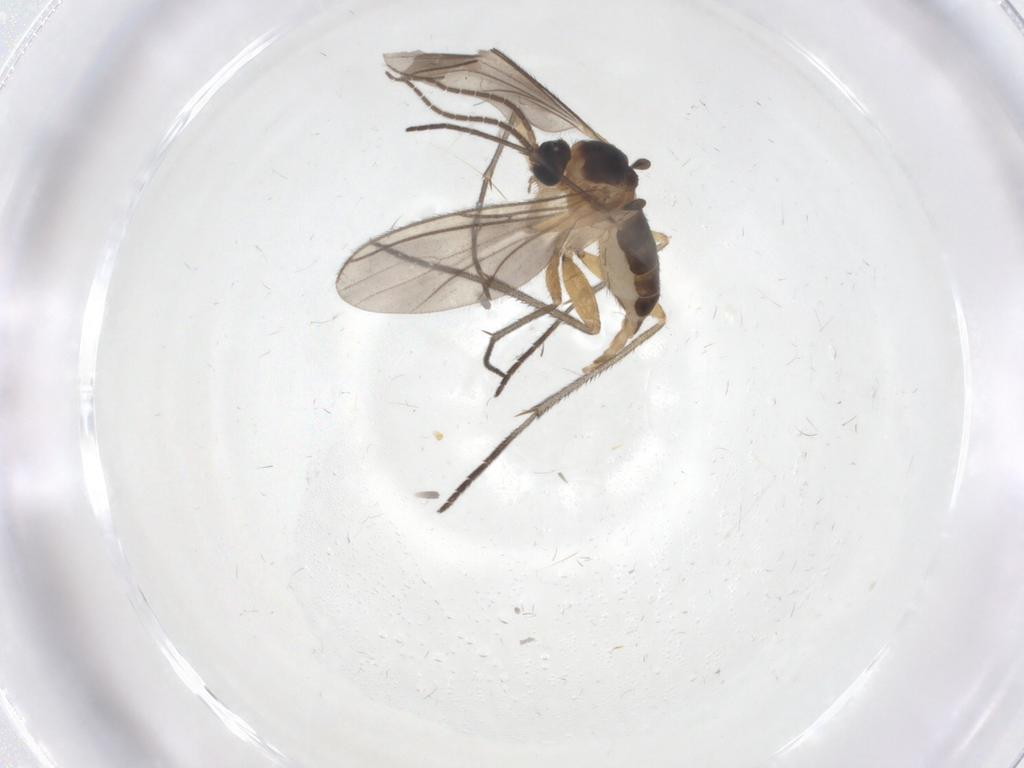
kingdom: Animalia
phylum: Arthropoda
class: Insecta
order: Diptera
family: Sciaridae
